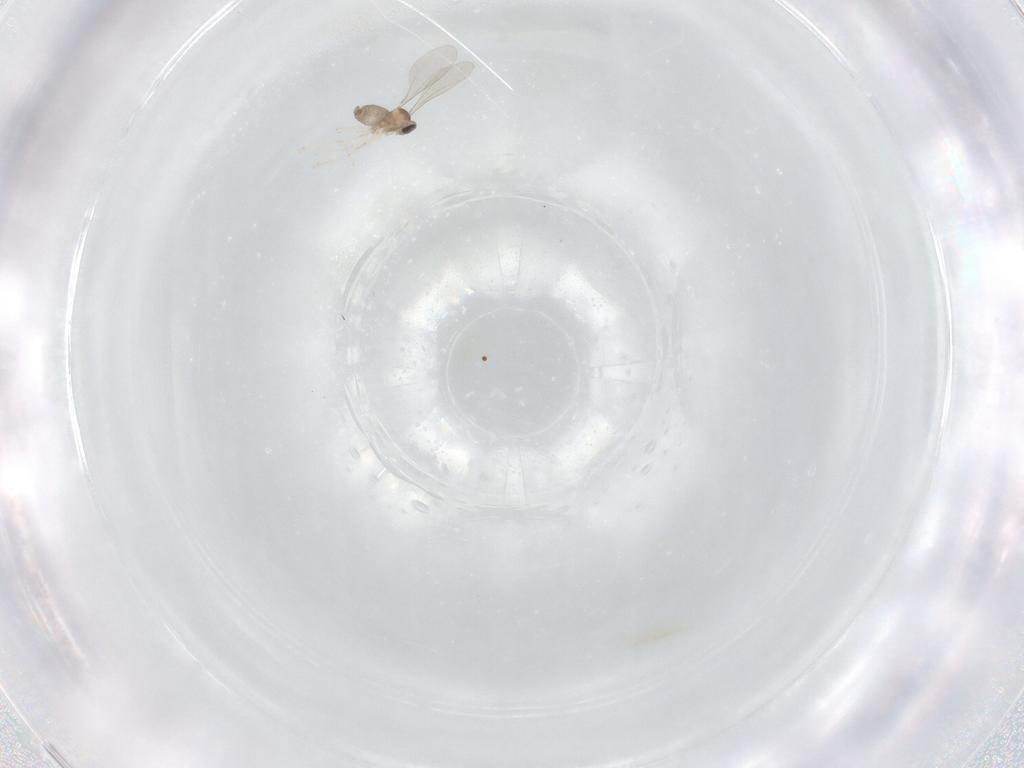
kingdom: Animalia
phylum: Arthropoda
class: Insecta
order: Diptera
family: Cecidomyiidae
